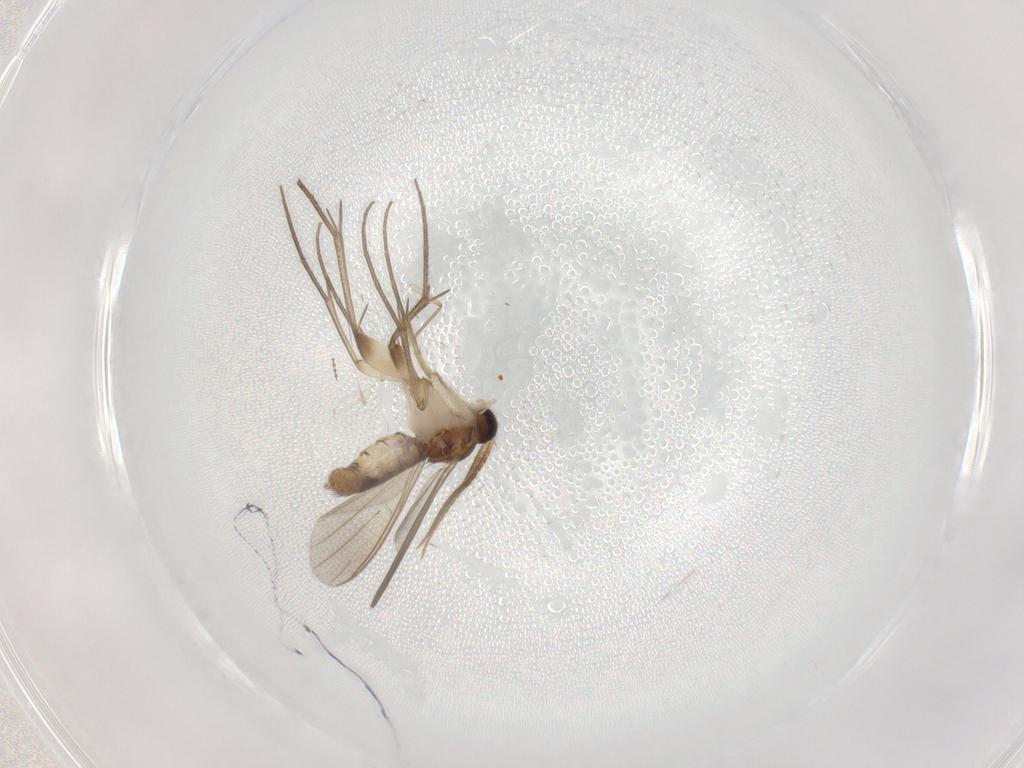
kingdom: Animalia
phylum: Arthropoda
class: Insecta
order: Diptera
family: Mycetophilidae
